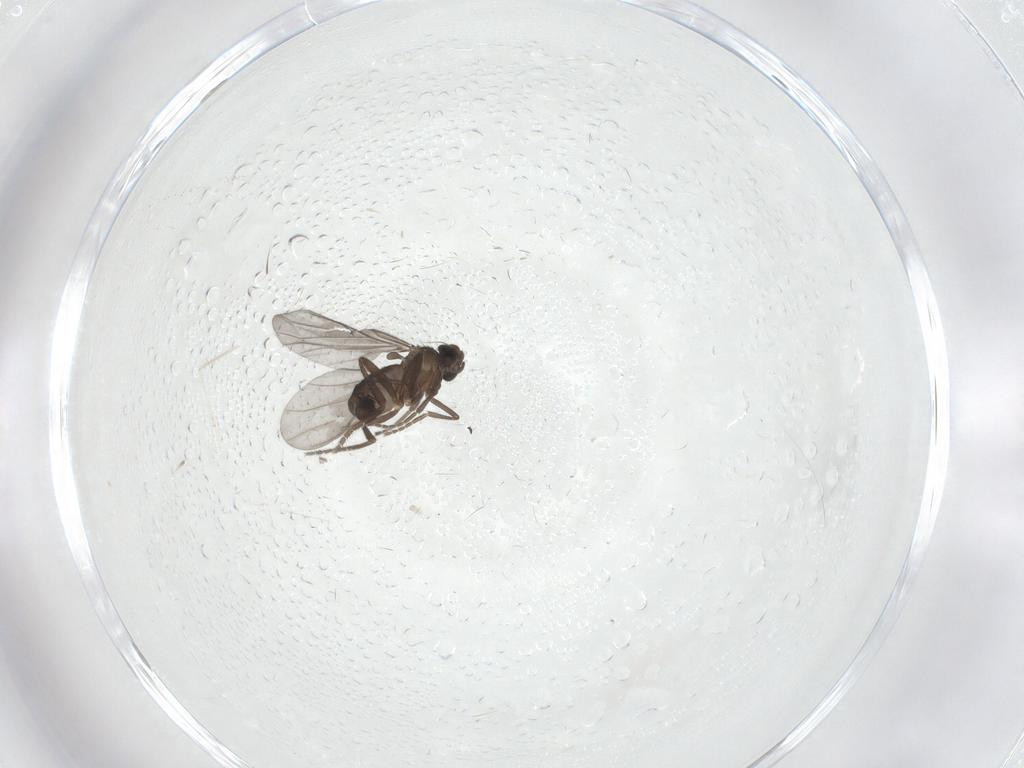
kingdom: Animalia
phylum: Arthropoda
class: Insecta
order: Diptera
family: Phoridae
